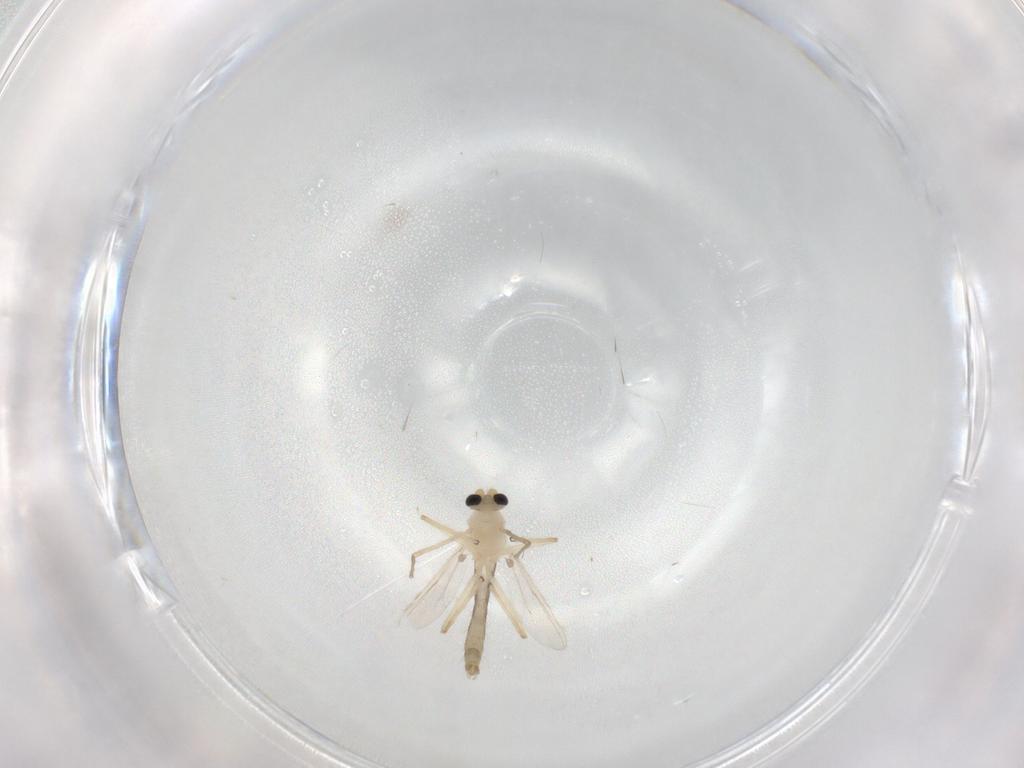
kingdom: Animalia
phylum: Arthropoda
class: Insecta
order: Diptera
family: Chironomidae
